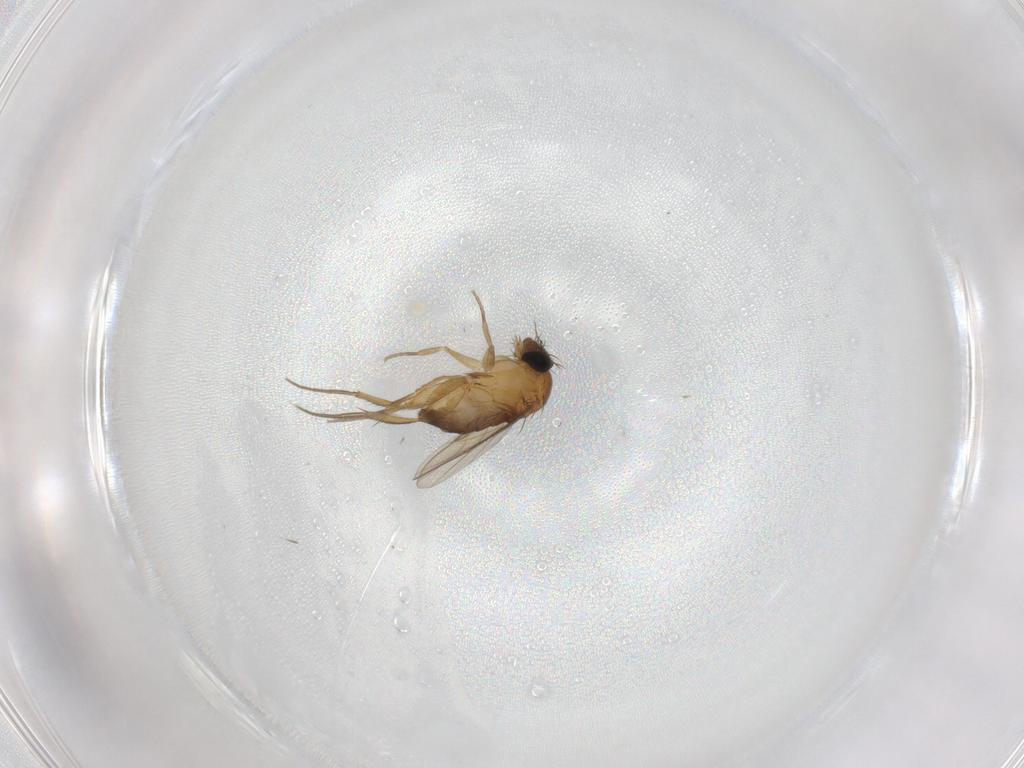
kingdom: Animalia
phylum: Arthropoda
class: Insecta
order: Diptera
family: Phoridae
